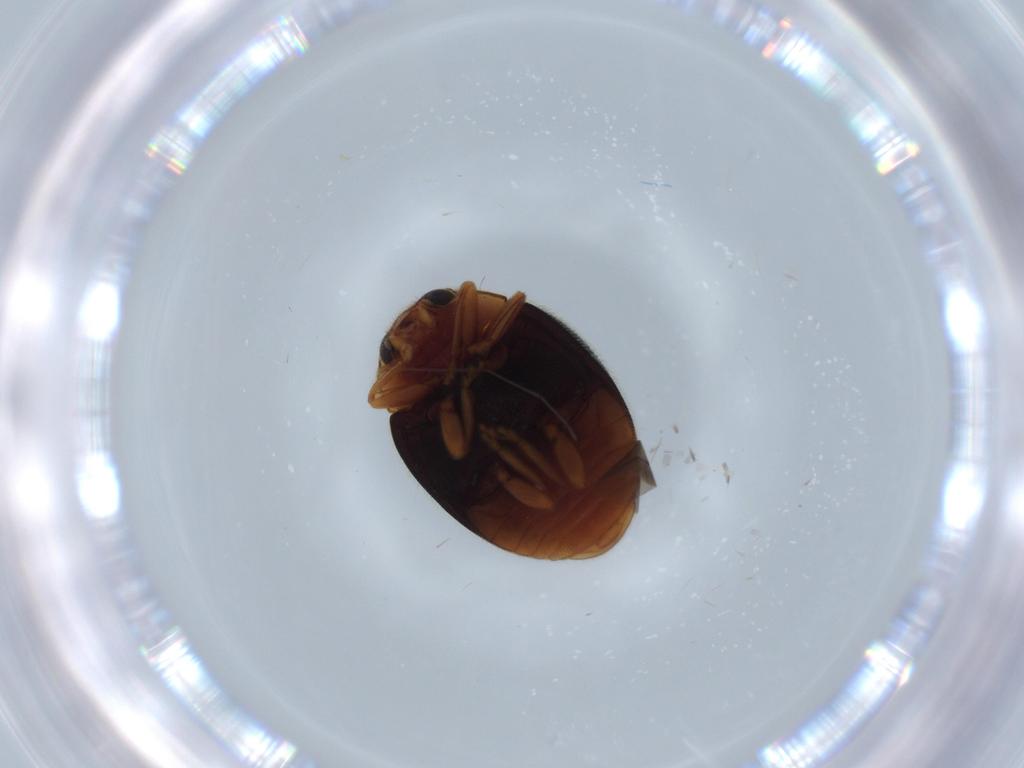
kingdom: Animalia
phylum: Arthropoda
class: Insecta
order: Coleoptera
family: Coccinellidae
